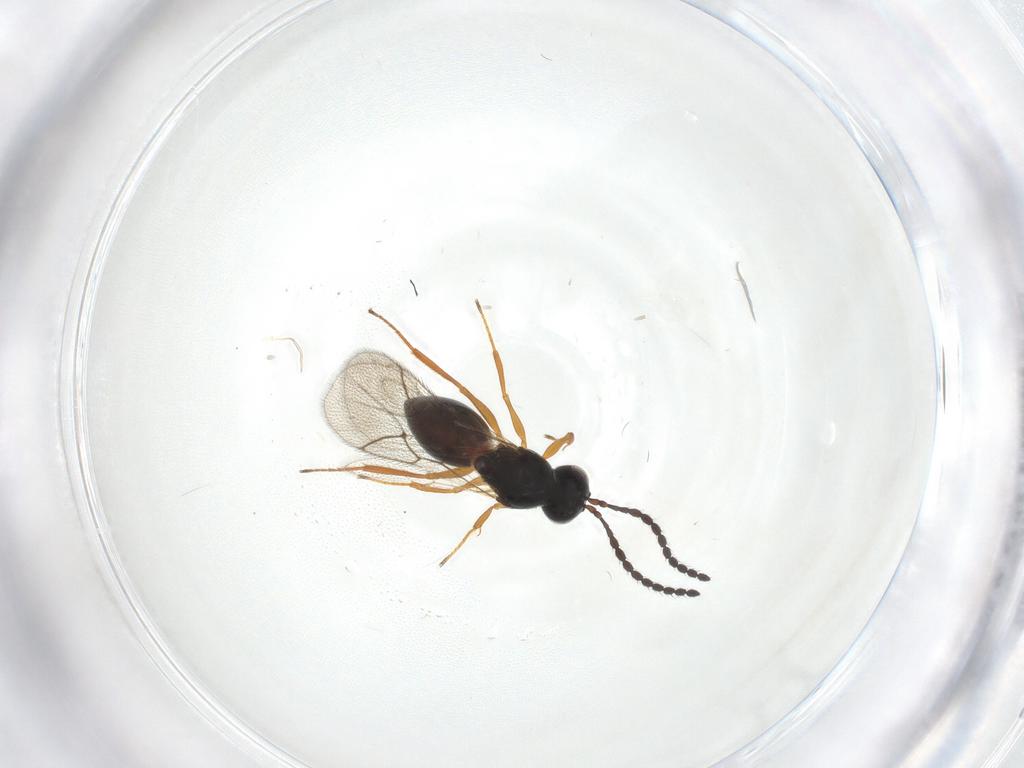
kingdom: Animalia
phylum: Arthropoda
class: Insecta
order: Hymenoptera
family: Figitidae
